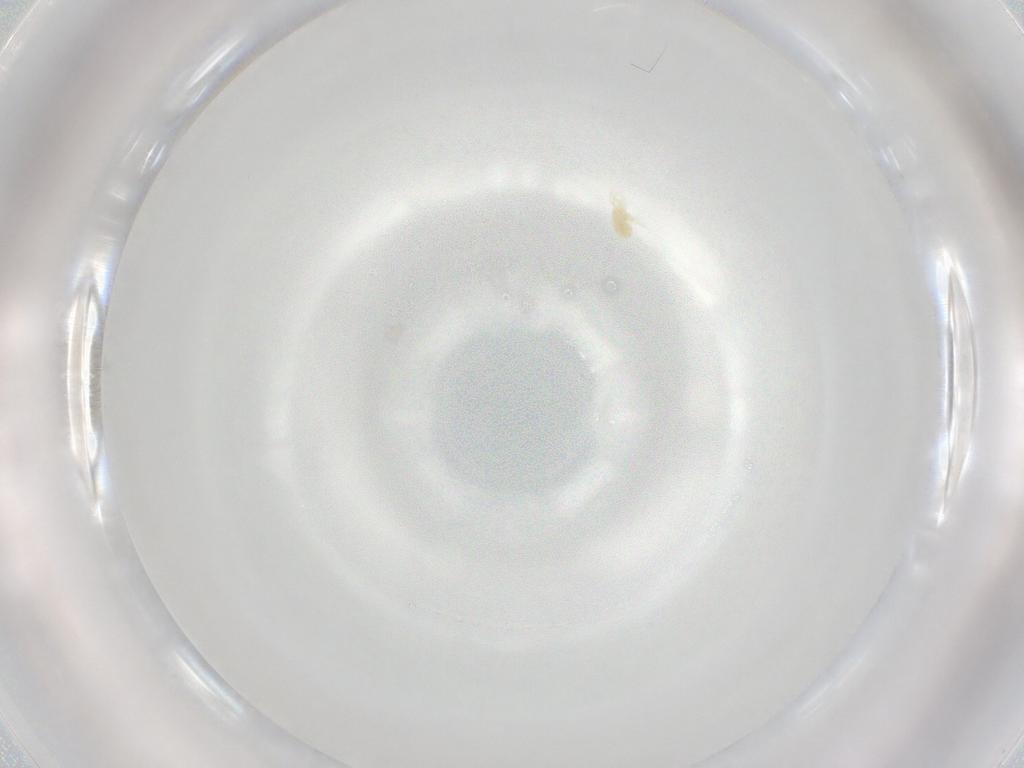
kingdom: Animalia
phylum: Arthropoda
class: Arachnida
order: Trombidiformes
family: Eupodidae
